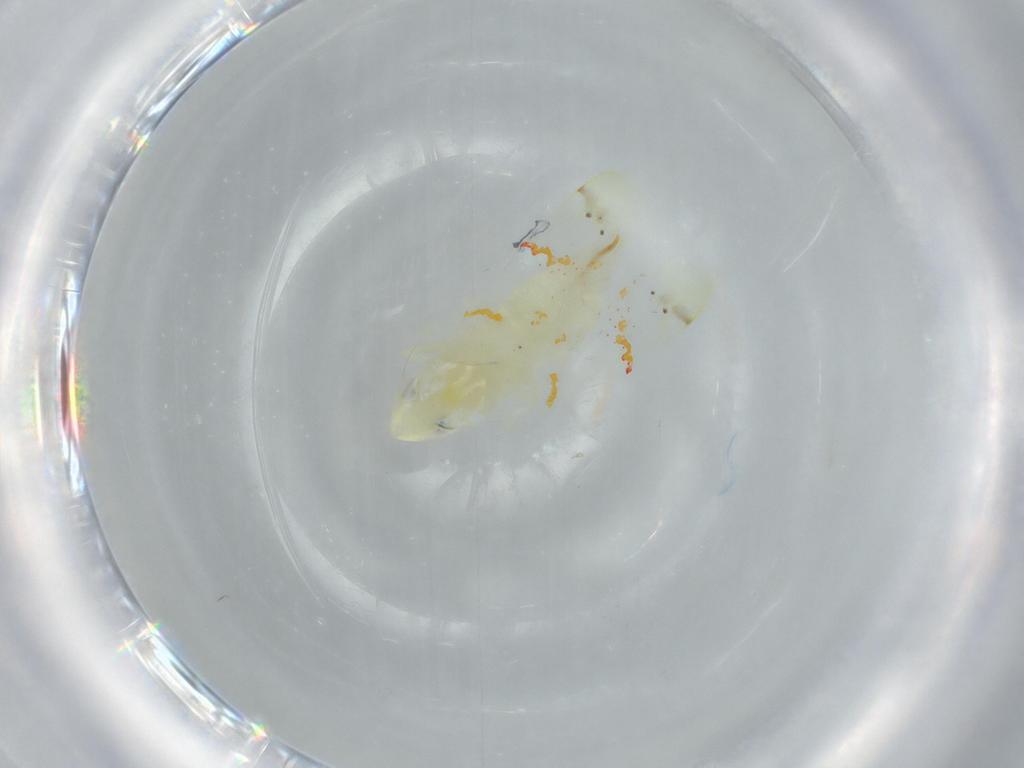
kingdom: Animalia
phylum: Arthropoda
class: Insecta
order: Hemiptera
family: Cicadellidae
